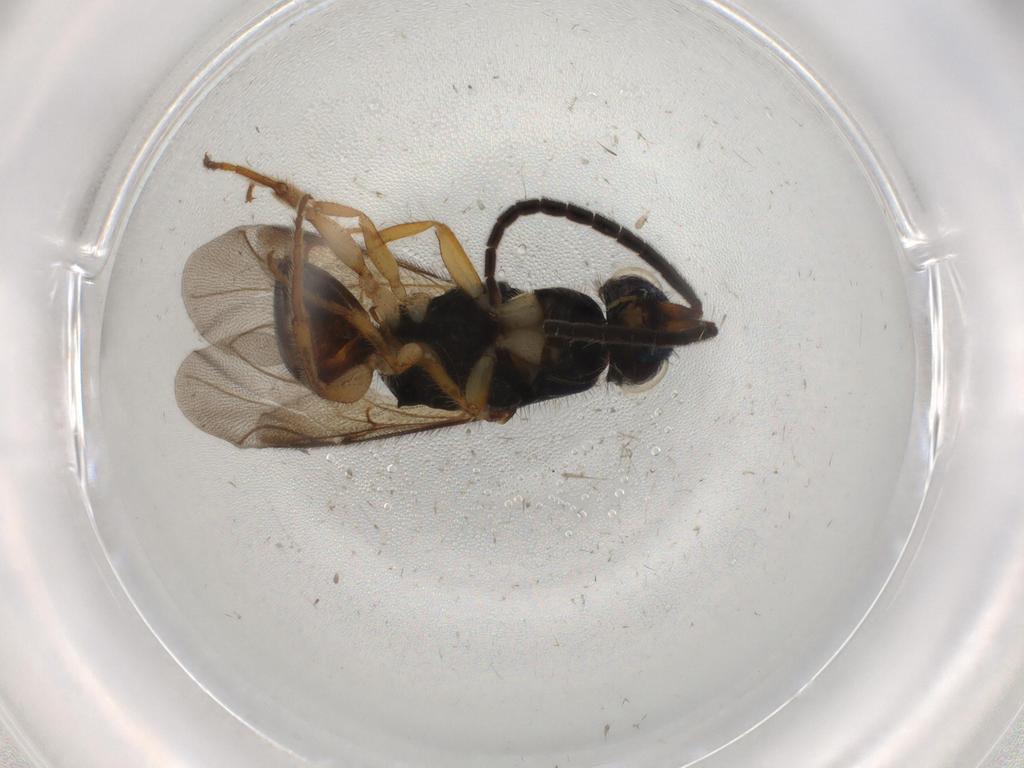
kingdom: Animalia
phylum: Arthropoda
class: Insecta
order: Hymenoptera
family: Chrysididae
